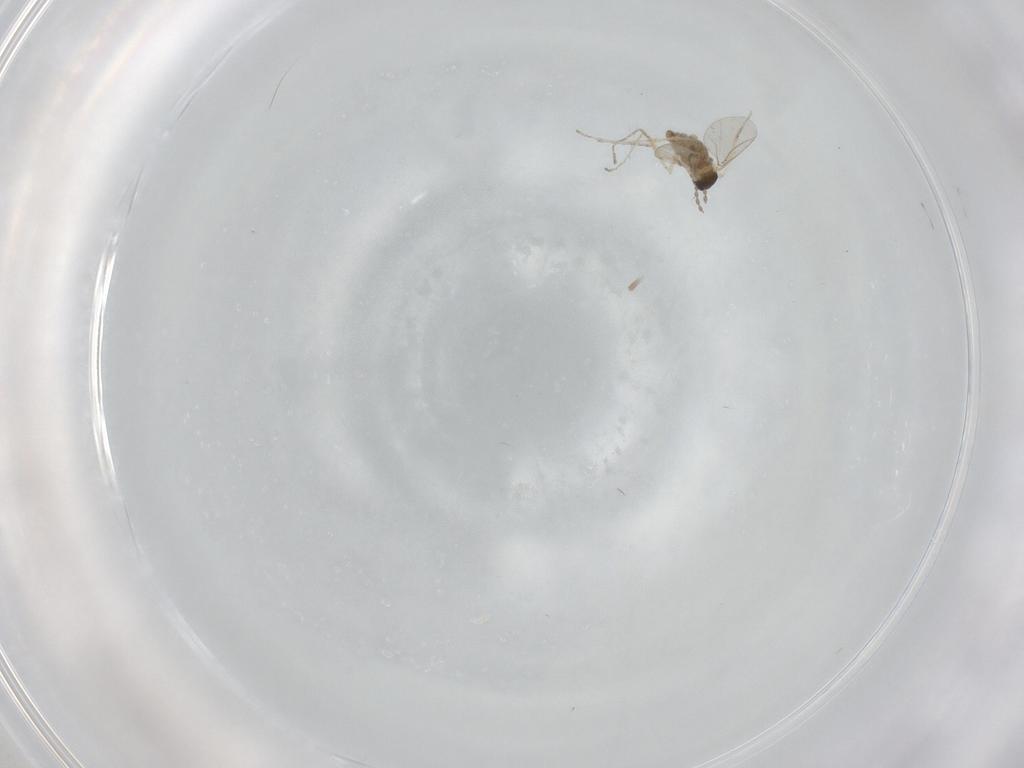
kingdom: Animalia
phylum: Arthropoda
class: Insecta
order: Diptera
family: Cecidomyiidae
